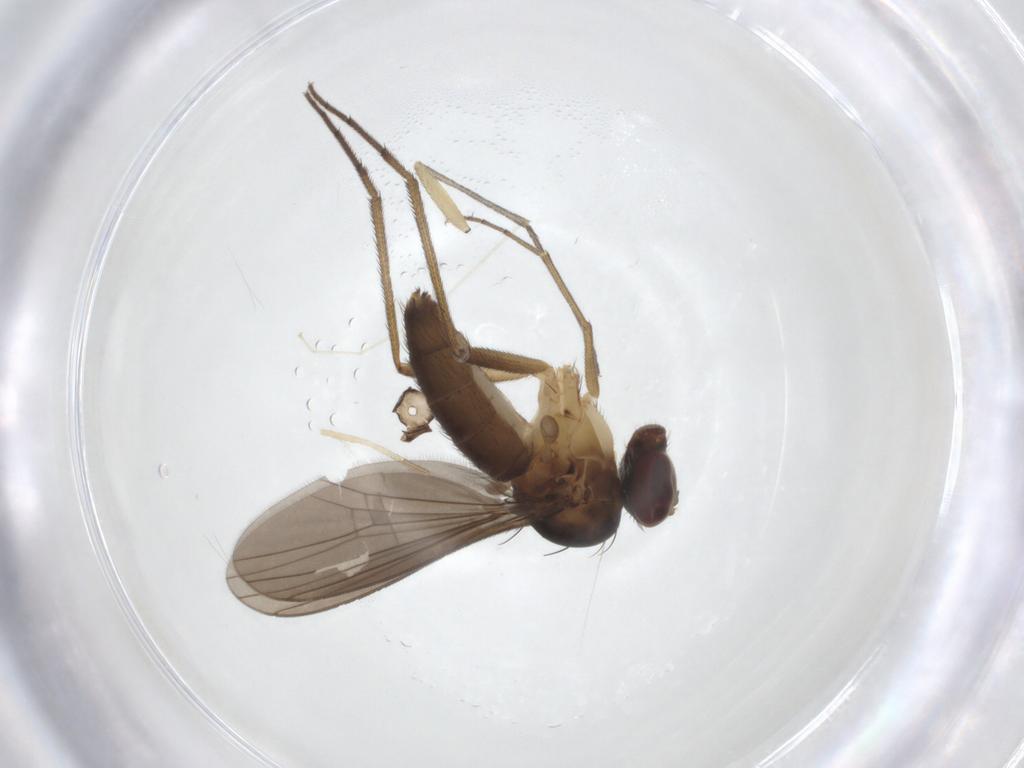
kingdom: Animalia
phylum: Arthropoda
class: Insecta
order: Diptera
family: Dolichopodidae
